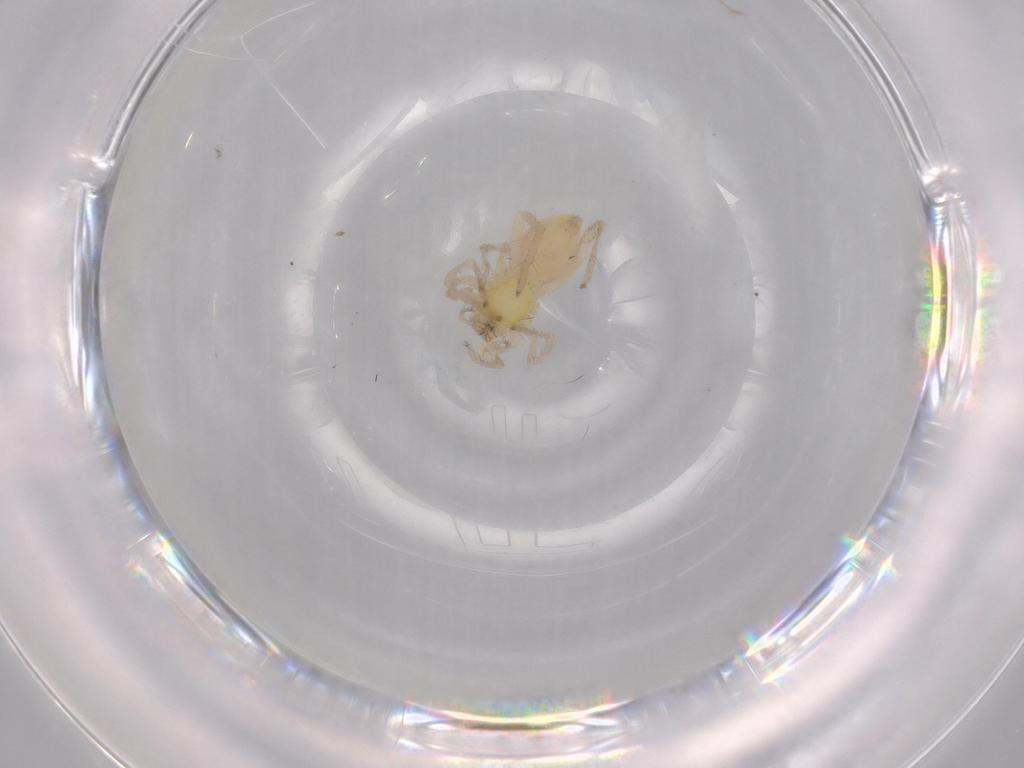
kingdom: Animalia
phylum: Arthropoda
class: Arachnida
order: Araneae
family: Anyphaenidae
